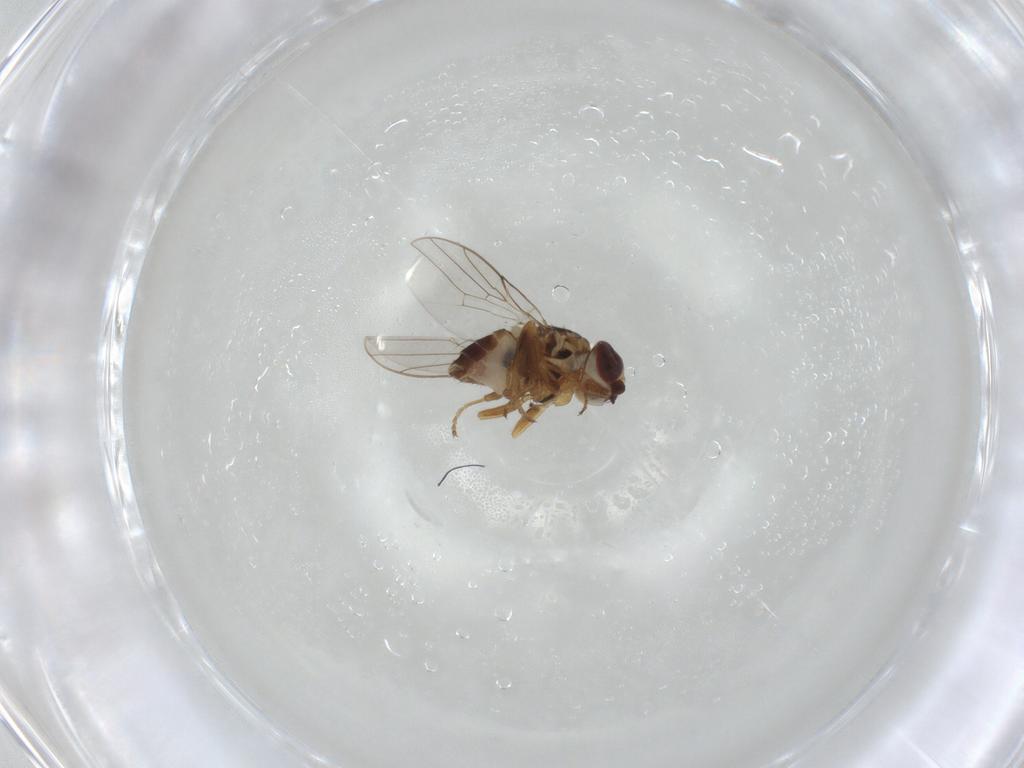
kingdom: Animalia
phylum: Arthropoda
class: Insecta
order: Diptera
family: Chloropidae
